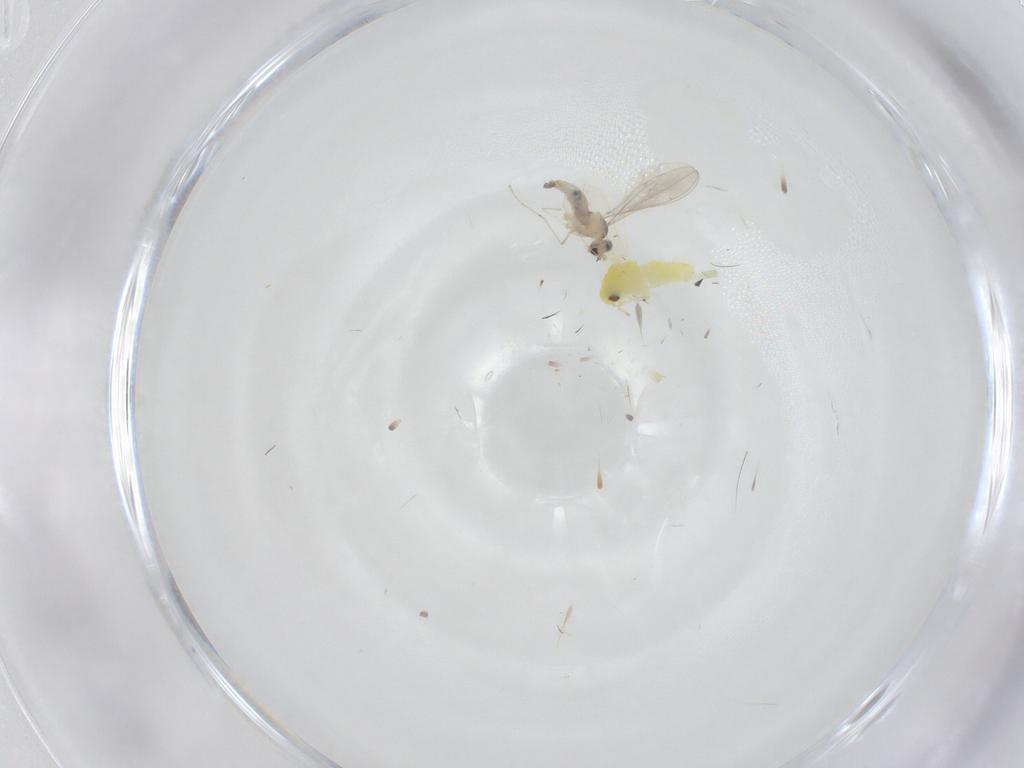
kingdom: Animalia
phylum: Arthropoda
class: Insecta
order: Diptera
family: Cecidomyiidae
